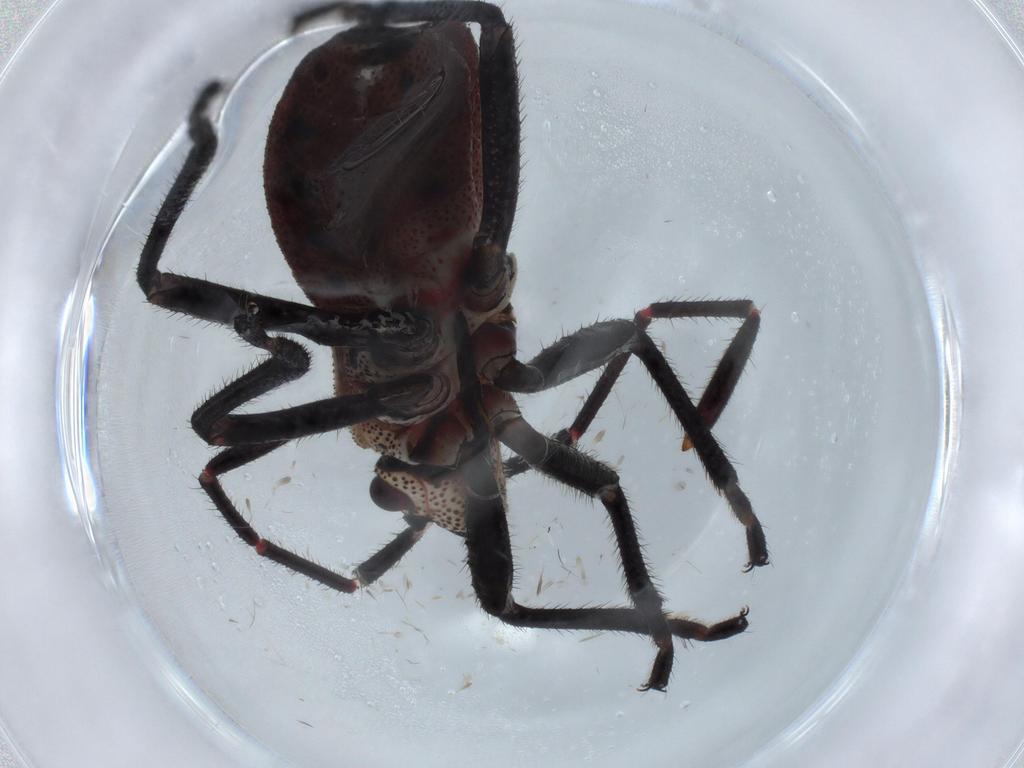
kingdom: Animalia
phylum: Arthropoda
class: Insecta
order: Hemiptera
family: Coreidae
